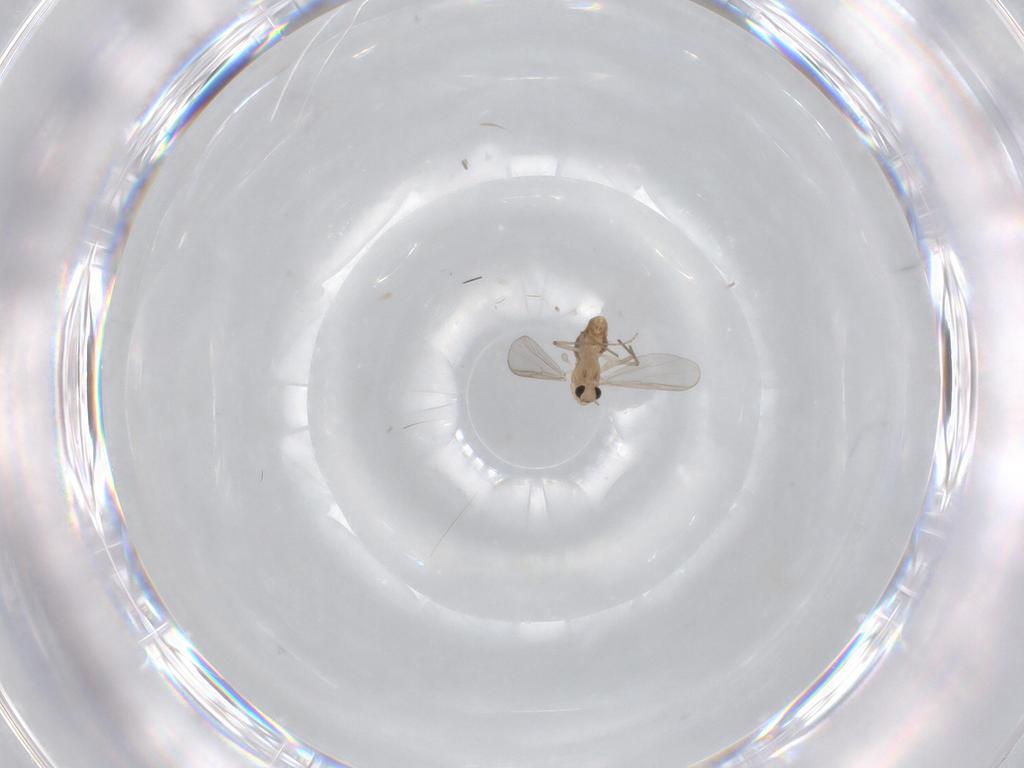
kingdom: Animalia
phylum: Arthropoda
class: Insecta
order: Diptera
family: Chironomidae
